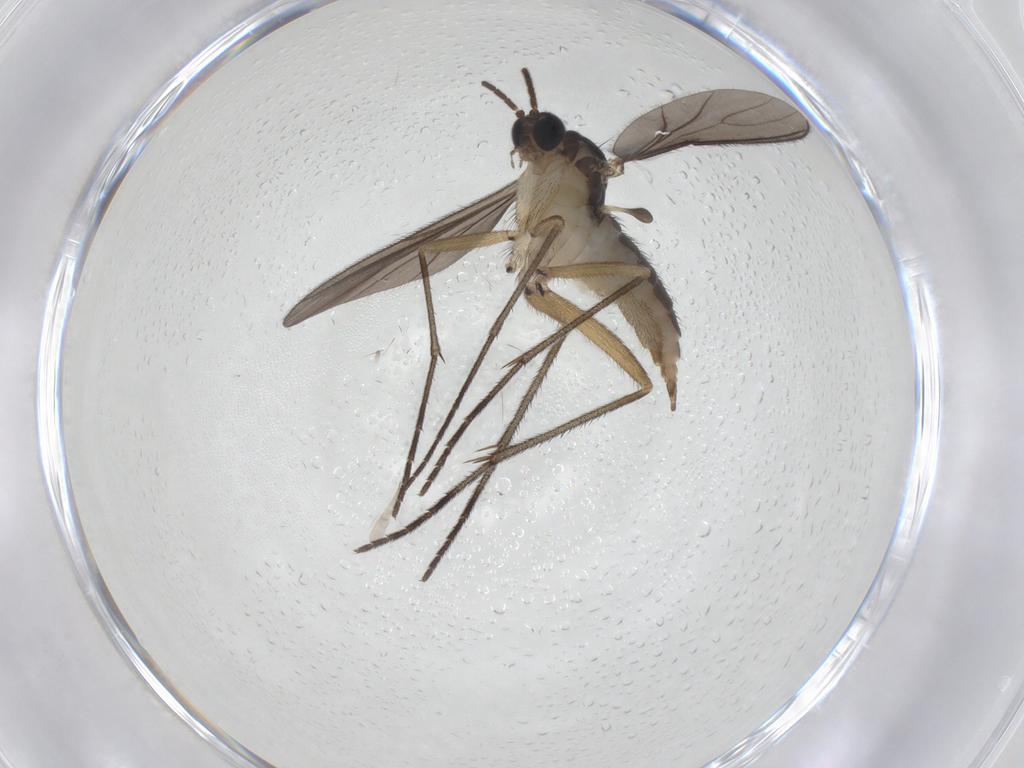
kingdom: Animalia
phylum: Arthropoda
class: Insecta
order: Diptera
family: Sciaridae
